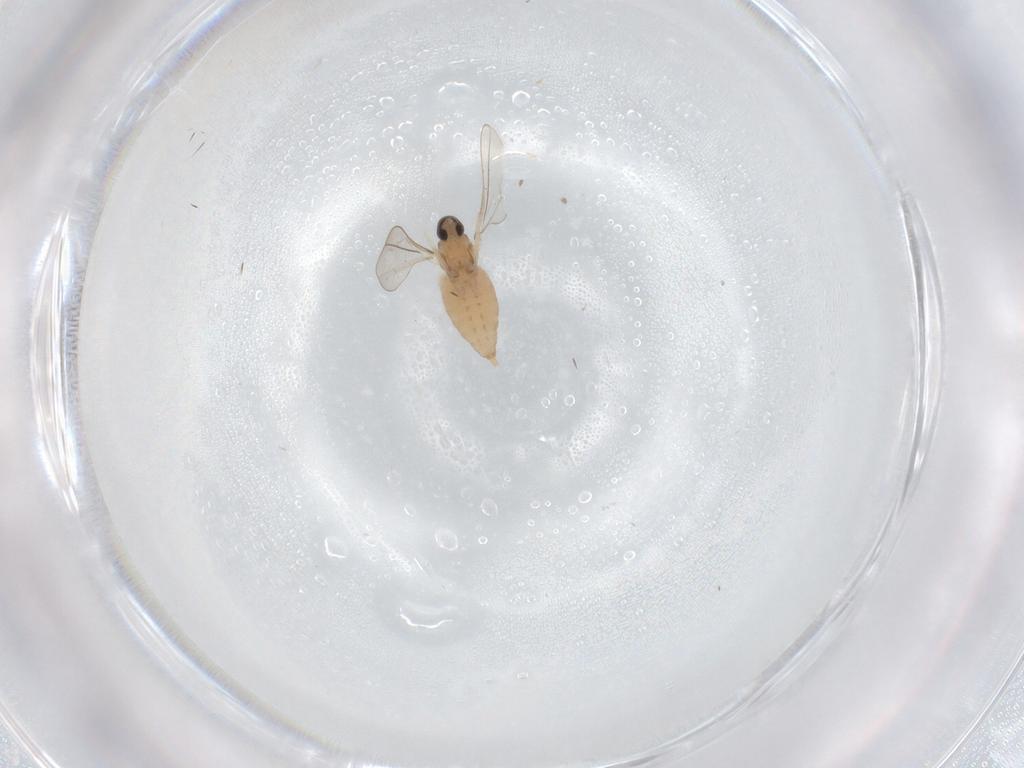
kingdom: Animalia
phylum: Arthropoda
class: Insecta
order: Diptera
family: Cecidomyiidae
